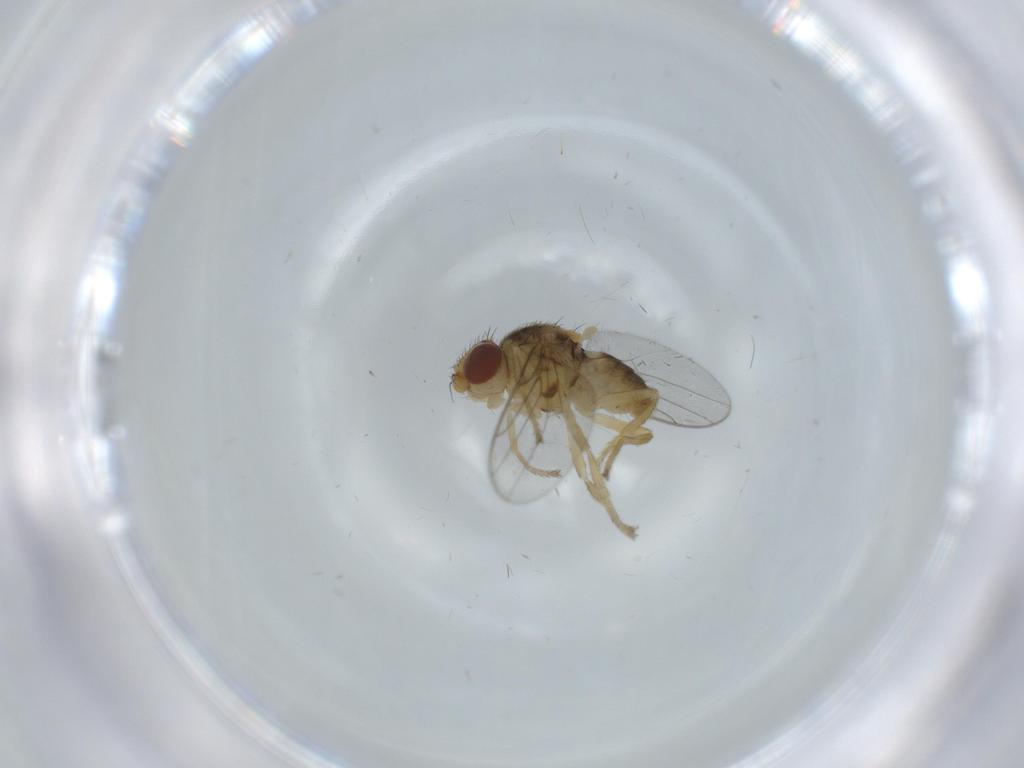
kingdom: Animalia
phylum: Arthropoda
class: Insecta
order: Diptera
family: Chloropidae
